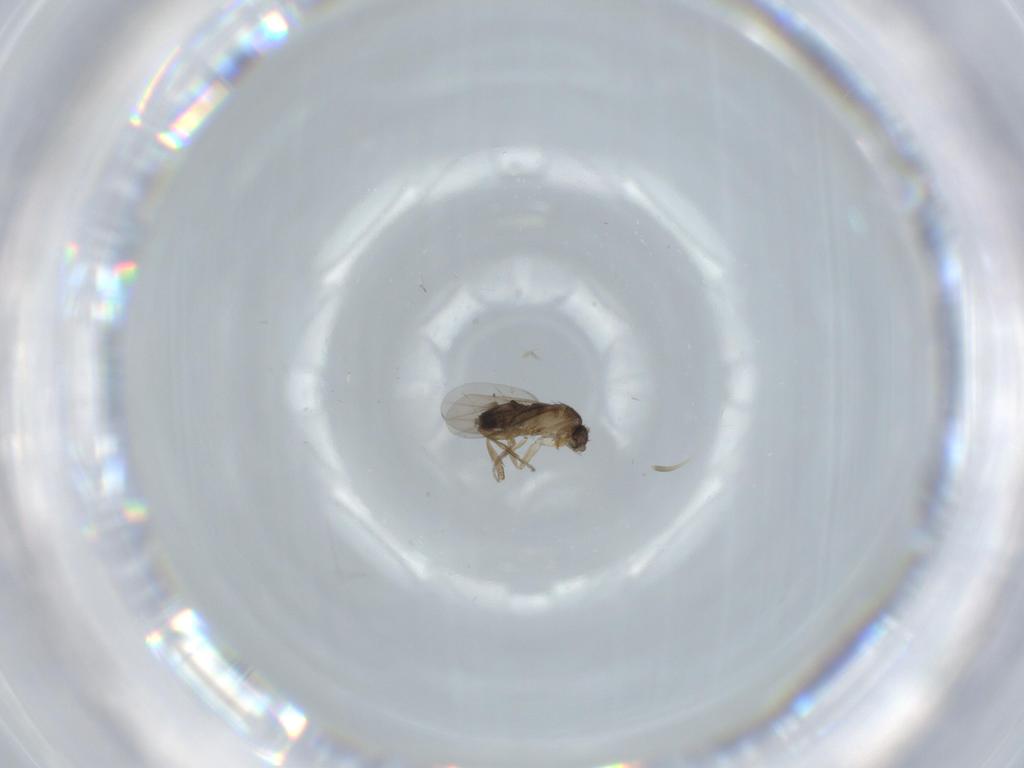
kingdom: Animalia
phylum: Arthropoda
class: Insecta
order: Diptera
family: Phoridae
